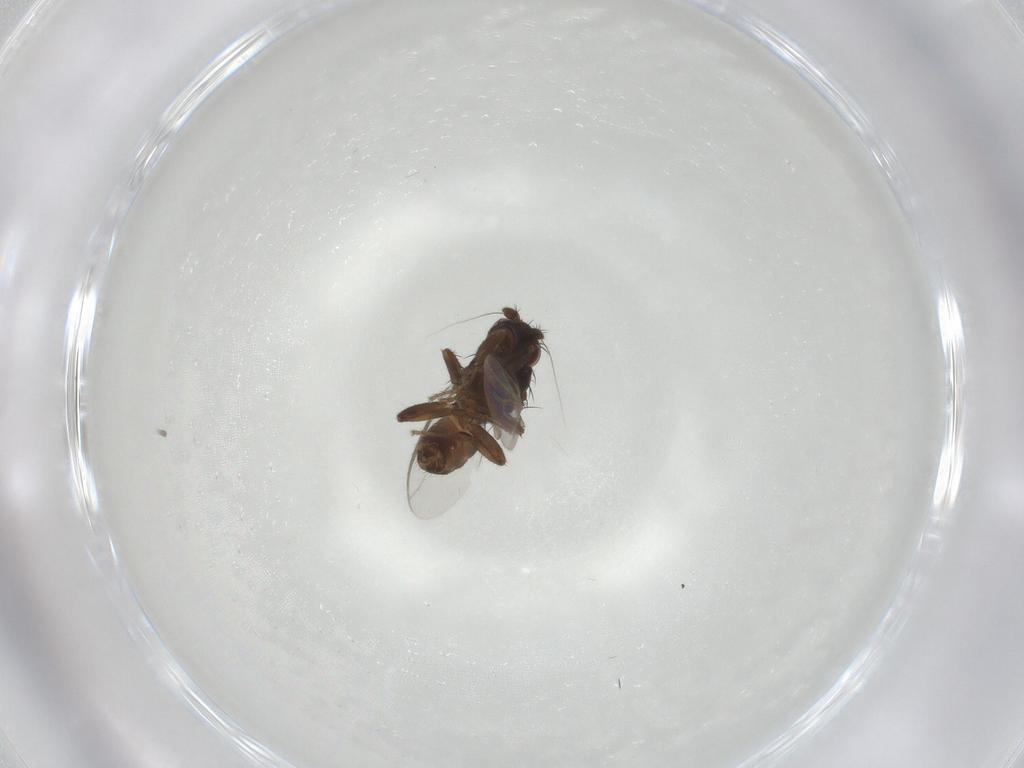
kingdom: Animalia
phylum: Arthropoda
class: Insecta
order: Diptera
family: Sphaeroceridae
